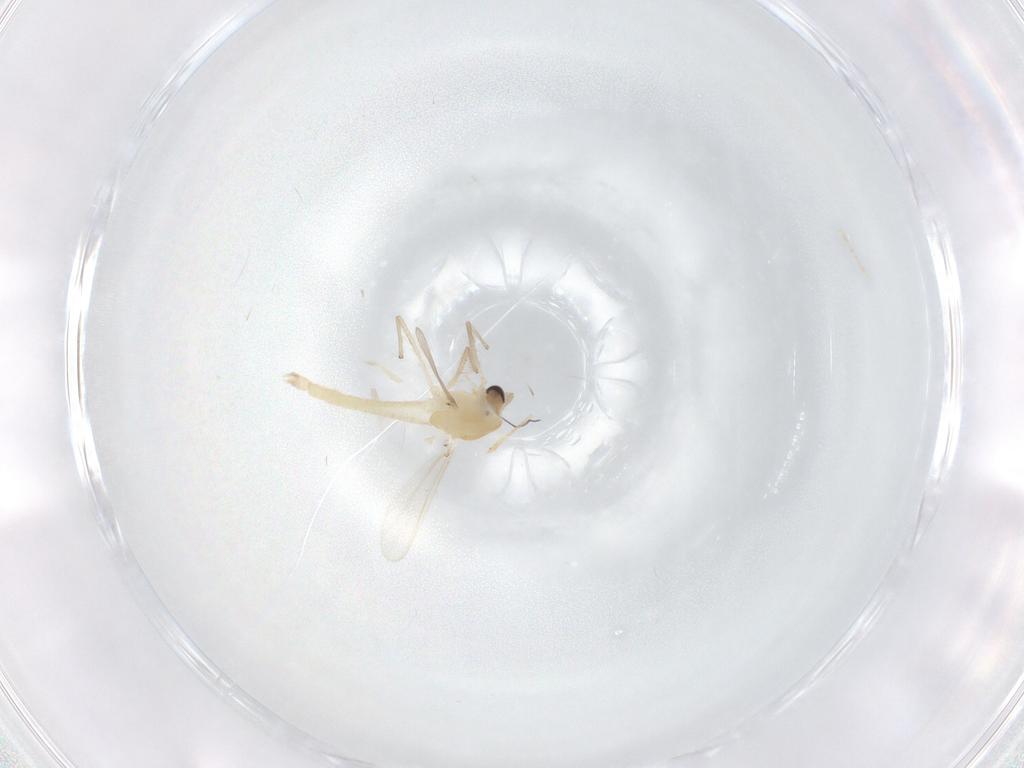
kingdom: Animalia
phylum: Arthropoda
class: Insecta
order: Diptera
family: Chironomidae
